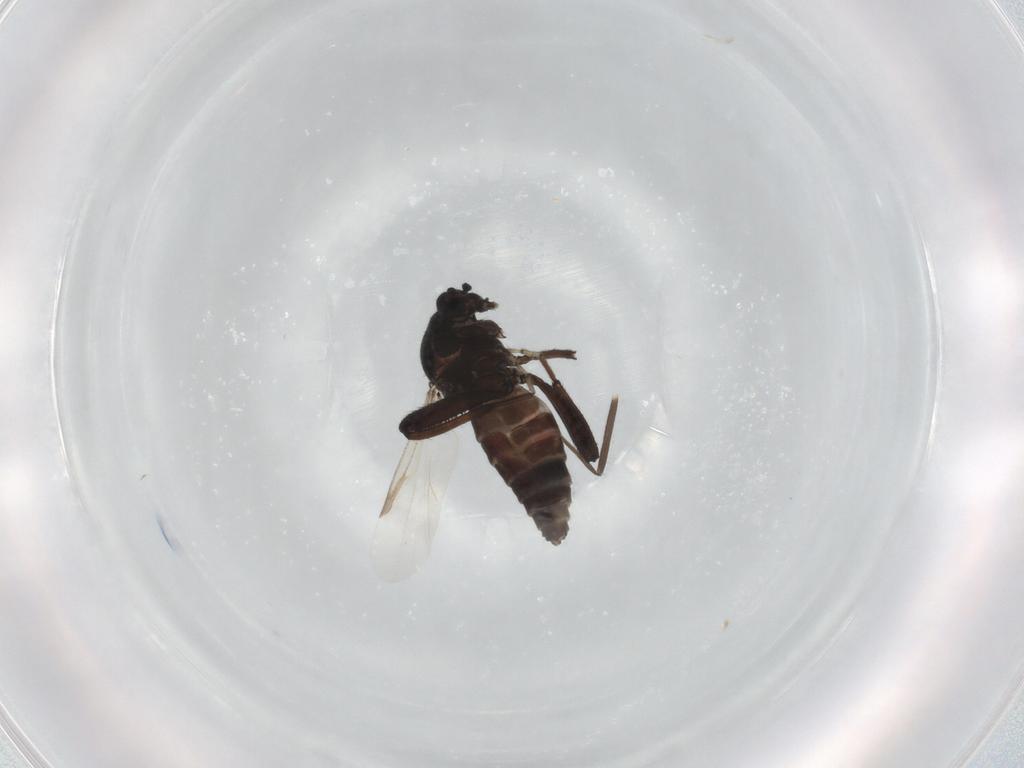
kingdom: Animalia
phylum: Arthropoda
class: Insecta
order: Diptera
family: Ceratopogonidae
